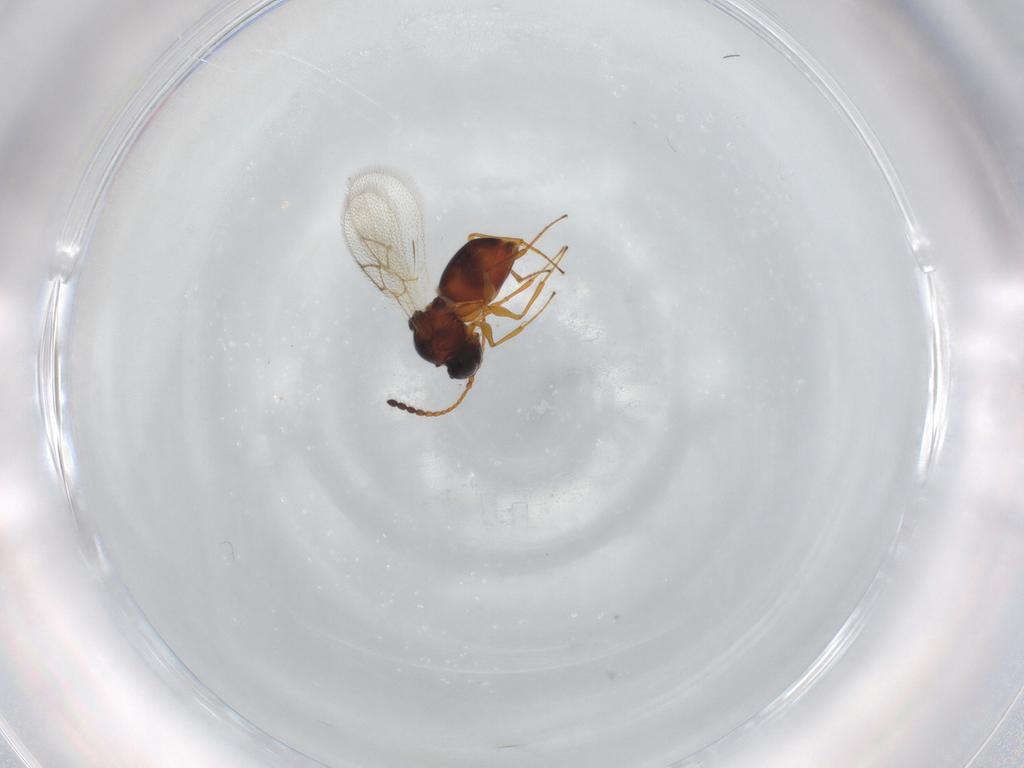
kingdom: Animalia
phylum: Arthropoda
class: Insecta
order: Hymenoptera
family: Figitidae
